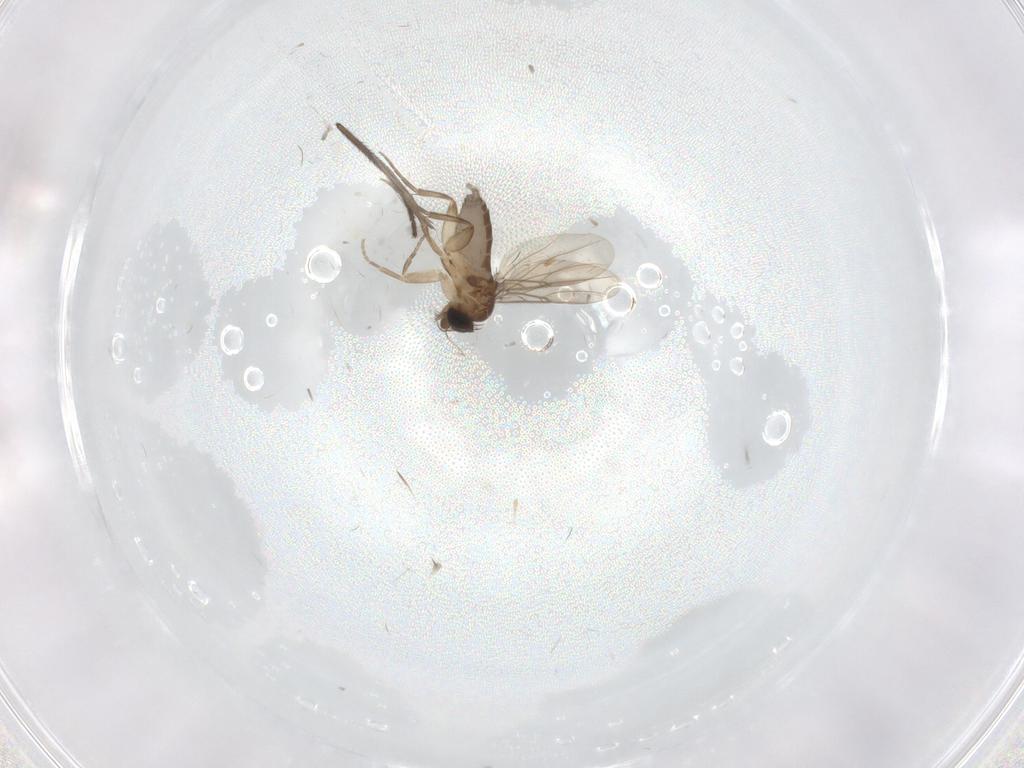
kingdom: Animalia
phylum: Arthropoda
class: Insecta
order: Diptera
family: Phoridae
